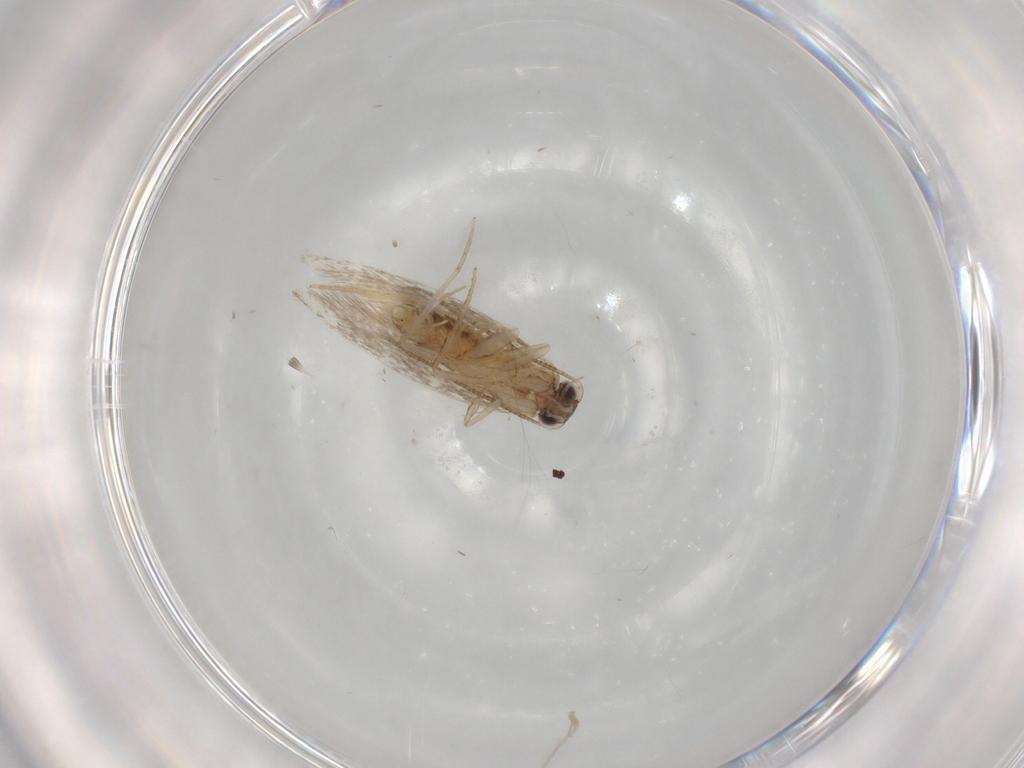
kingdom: Animalia
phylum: Arthropoda
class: Insecta
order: Lepidoptera
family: Tineidae
